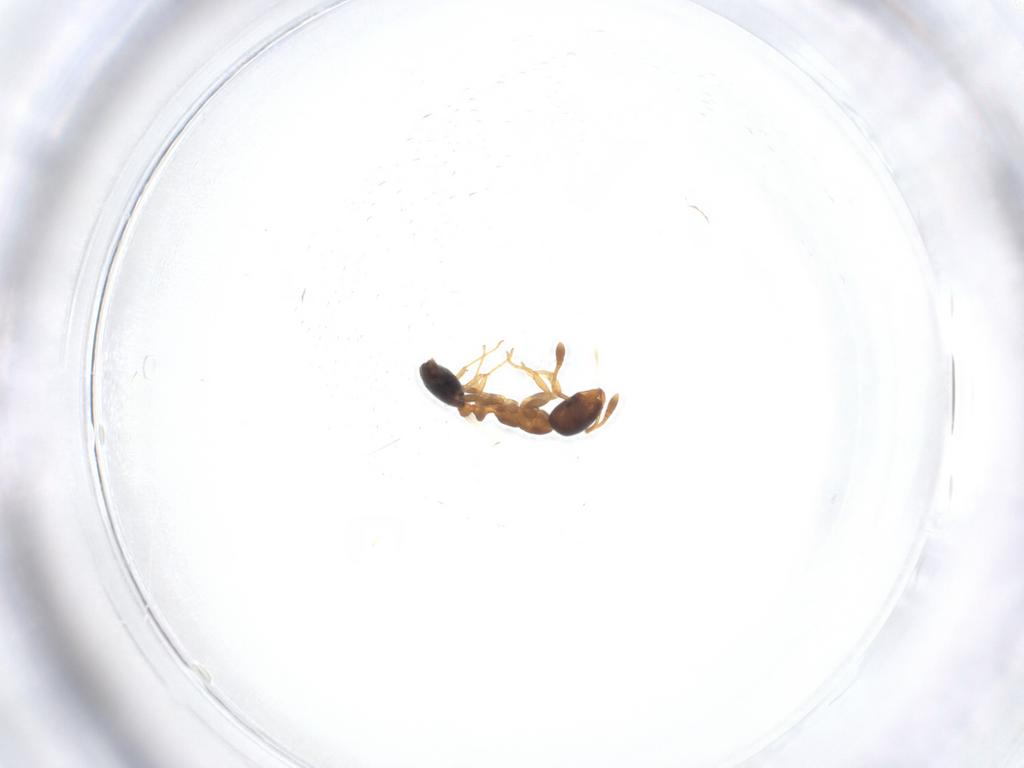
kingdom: Animalia
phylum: Arthropoda
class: Insecta
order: Hymenoptera
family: Formicidae
